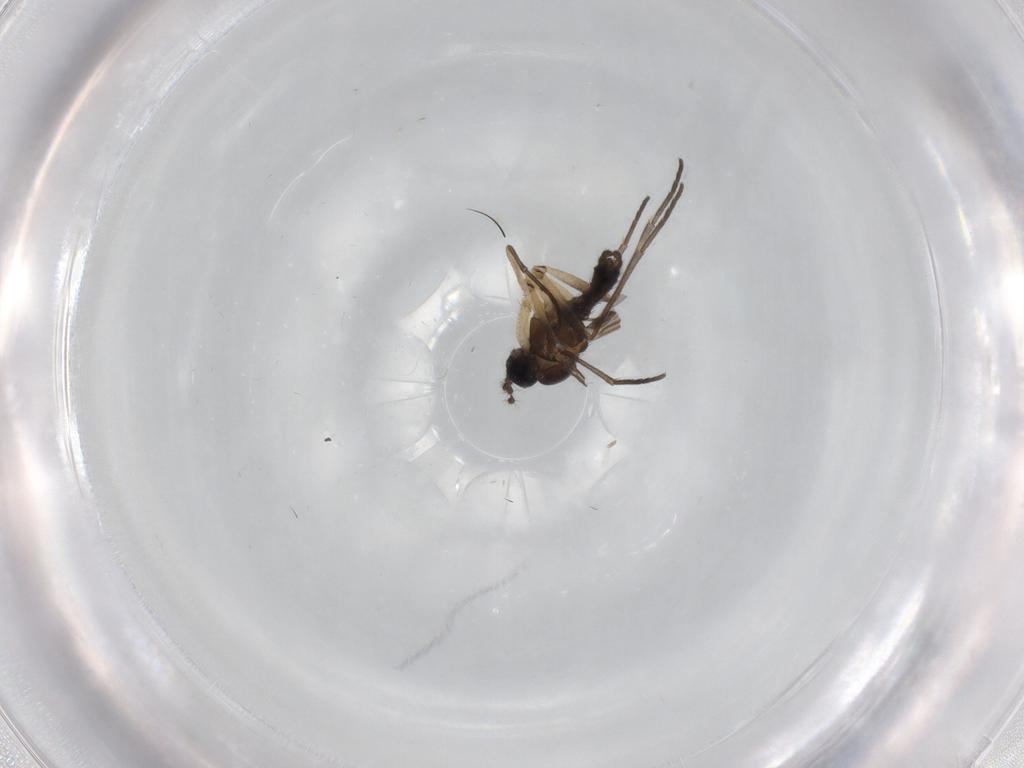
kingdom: Animalia
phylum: Arthropoda
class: Insecta
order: Diptera
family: Sciaridae
